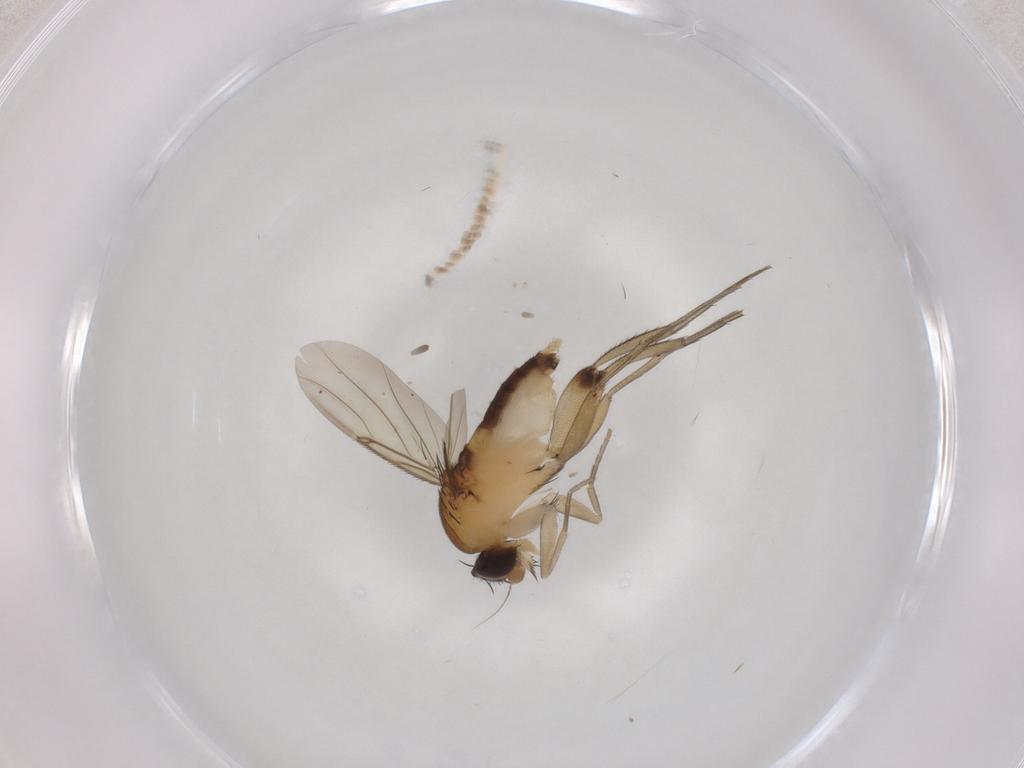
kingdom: Animalia
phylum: Arthropoda
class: Insecta
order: Diptera
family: Phoridae
